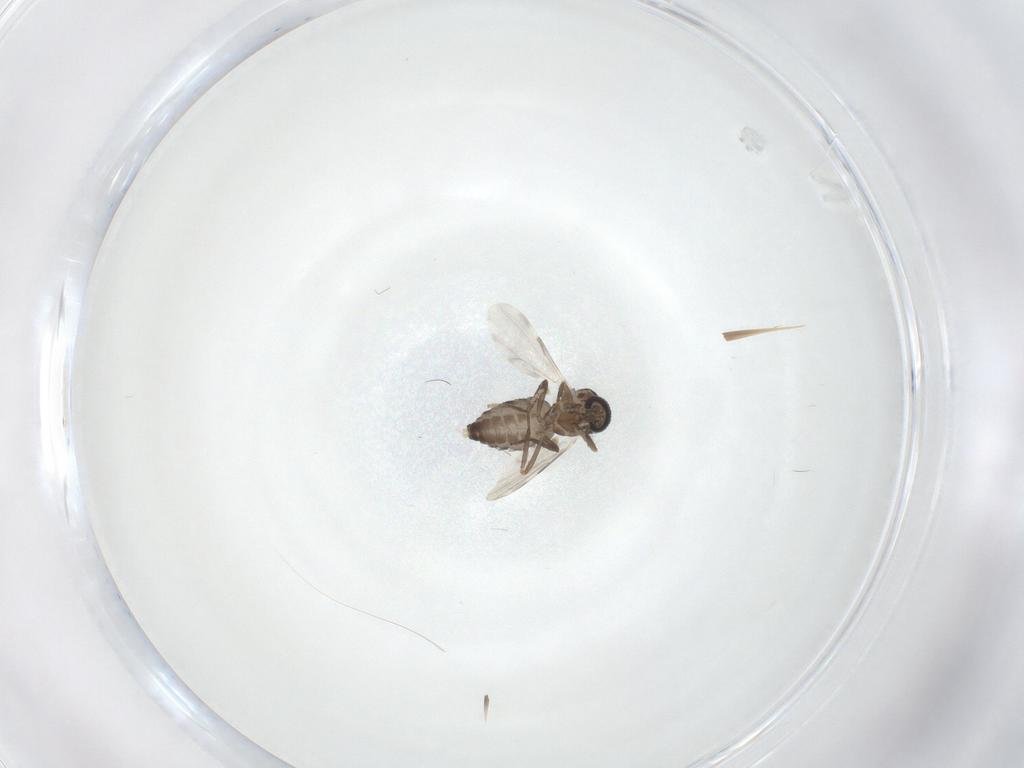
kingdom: Animalia
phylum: Arthropoda
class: Insecta
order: Diptera
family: Ceratopogonidae
